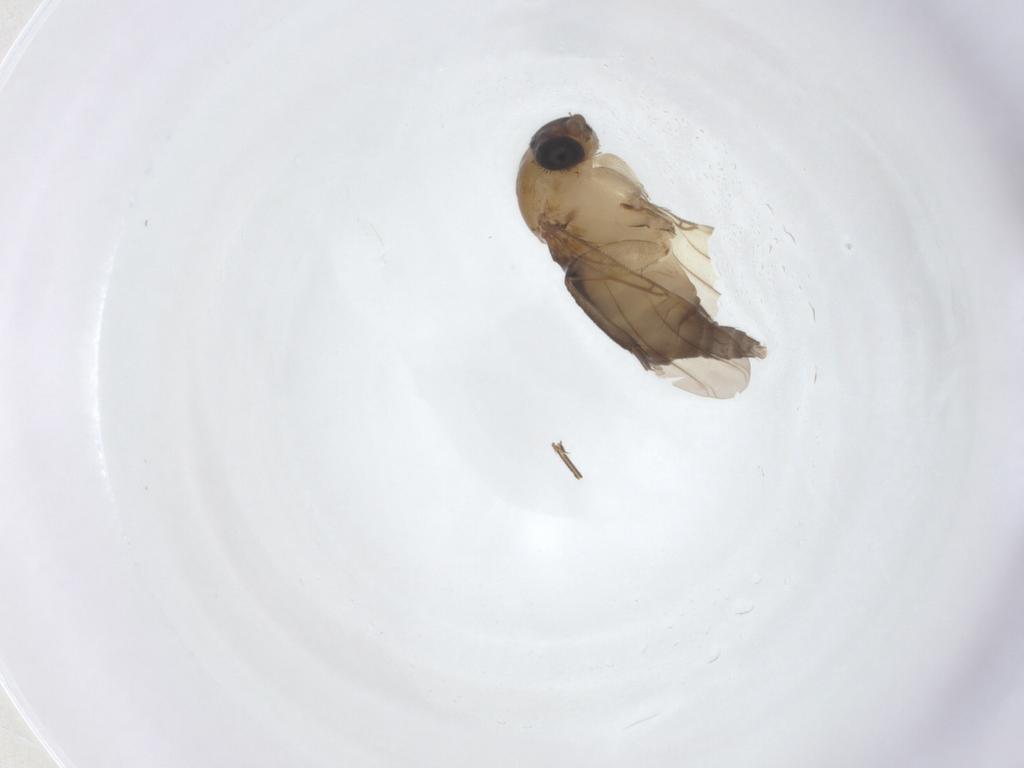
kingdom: Animalia
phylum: Arthropoda
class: Insecta
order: Diptera
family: Phoridae
